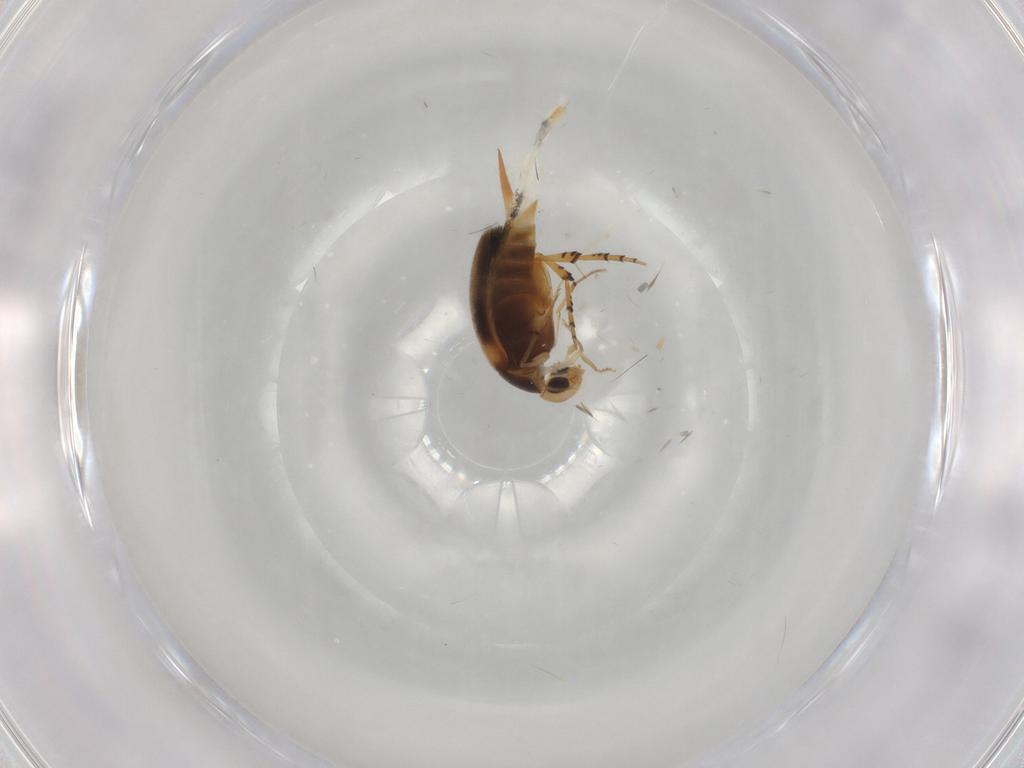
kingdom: Animalia
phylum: Arthropoda
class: Insecta
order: Coleoptera
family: Mordellidae
